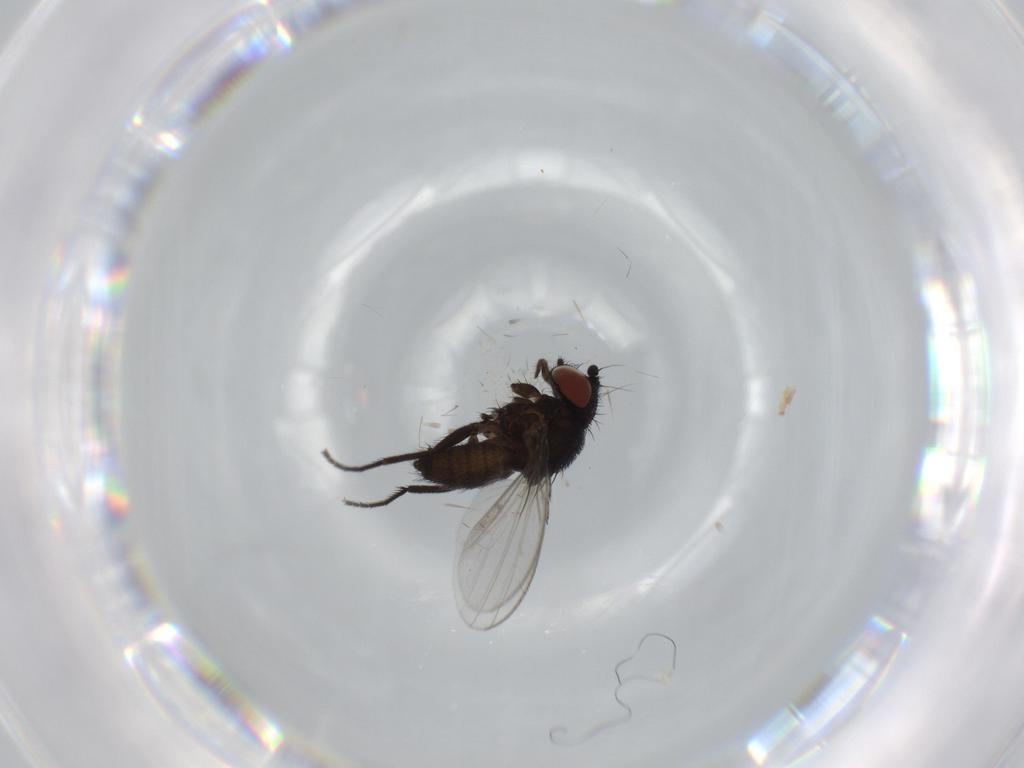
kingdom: Animalia
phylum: Arthropoda
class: Insecta
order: Diptera
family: Milichiidae
